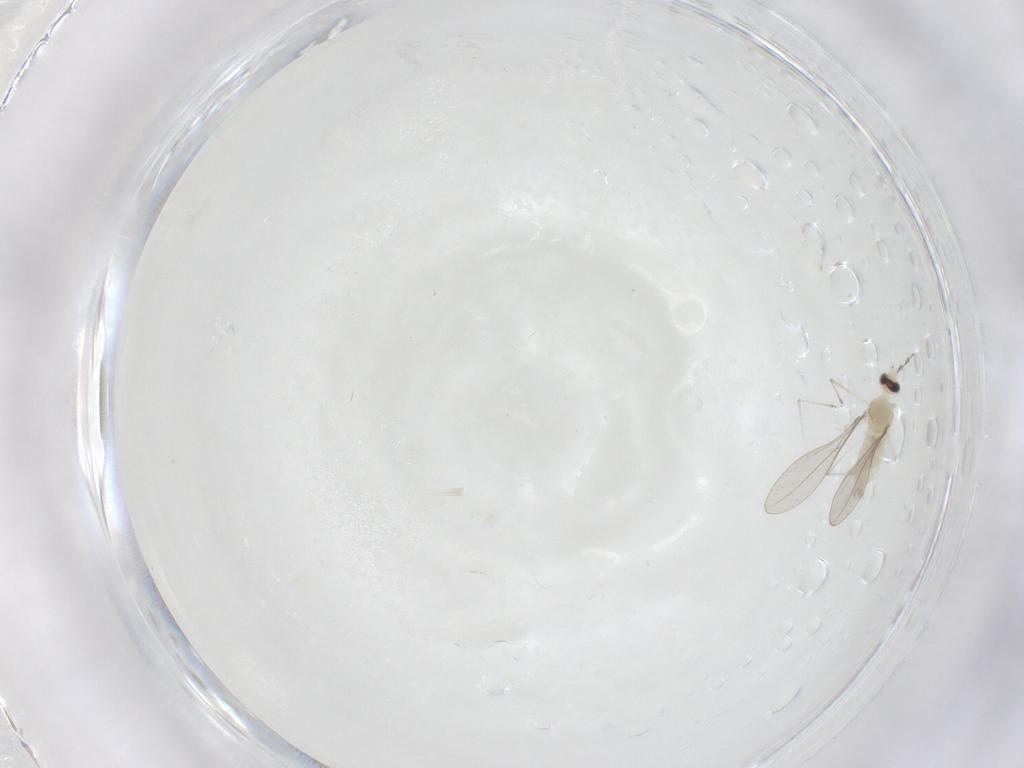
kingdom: Animalia
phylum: Arthropoda
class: Insecta
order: Diptera
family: Cecidomyiidae
